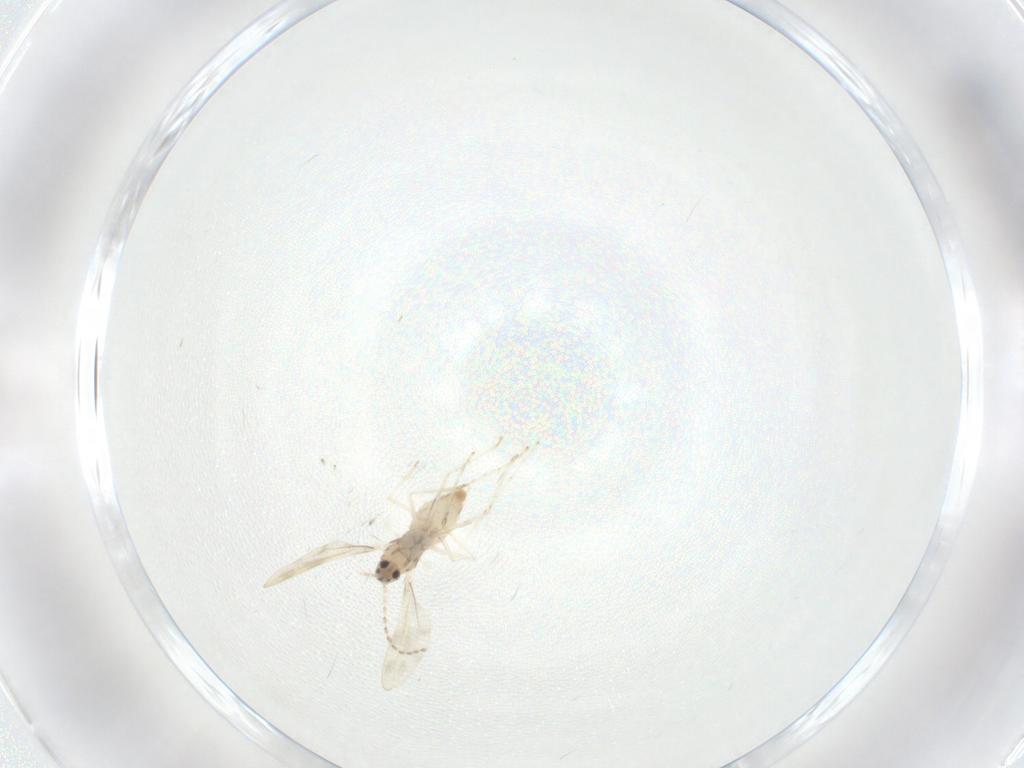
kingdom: Animalia
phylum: Arthropoda
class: Insecta
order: Diptera
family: Cecidomyiidae
